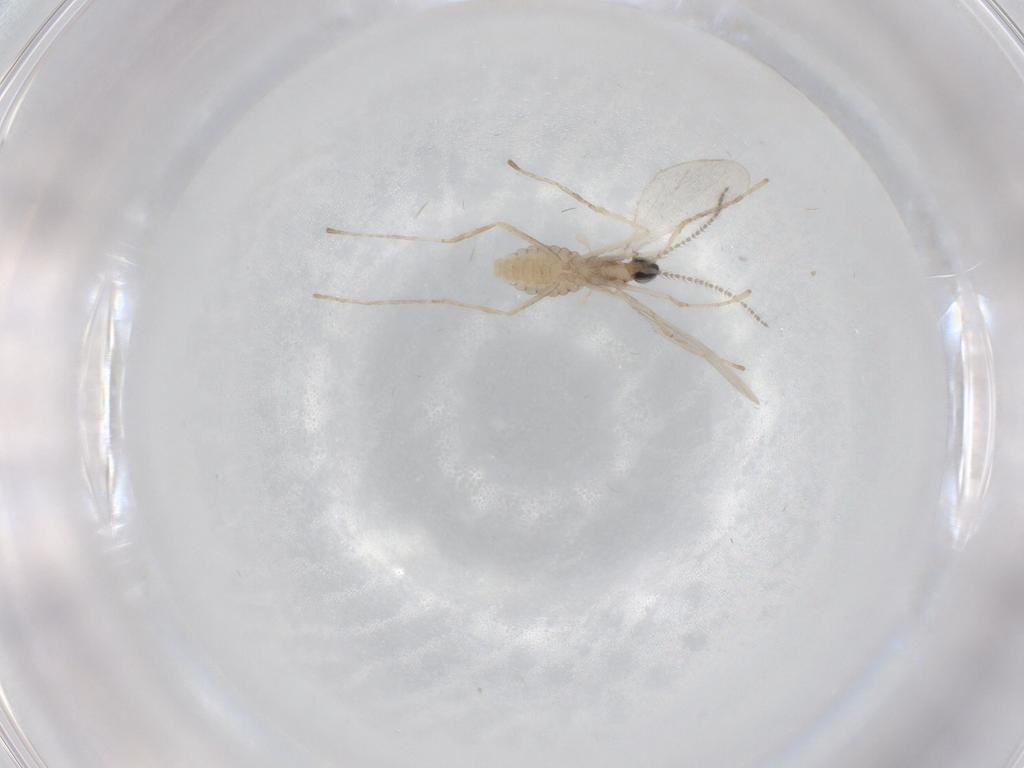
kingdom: Animalia
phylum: Arthropoda
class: Insecta
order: Diptera
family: Cecidomyiidae
